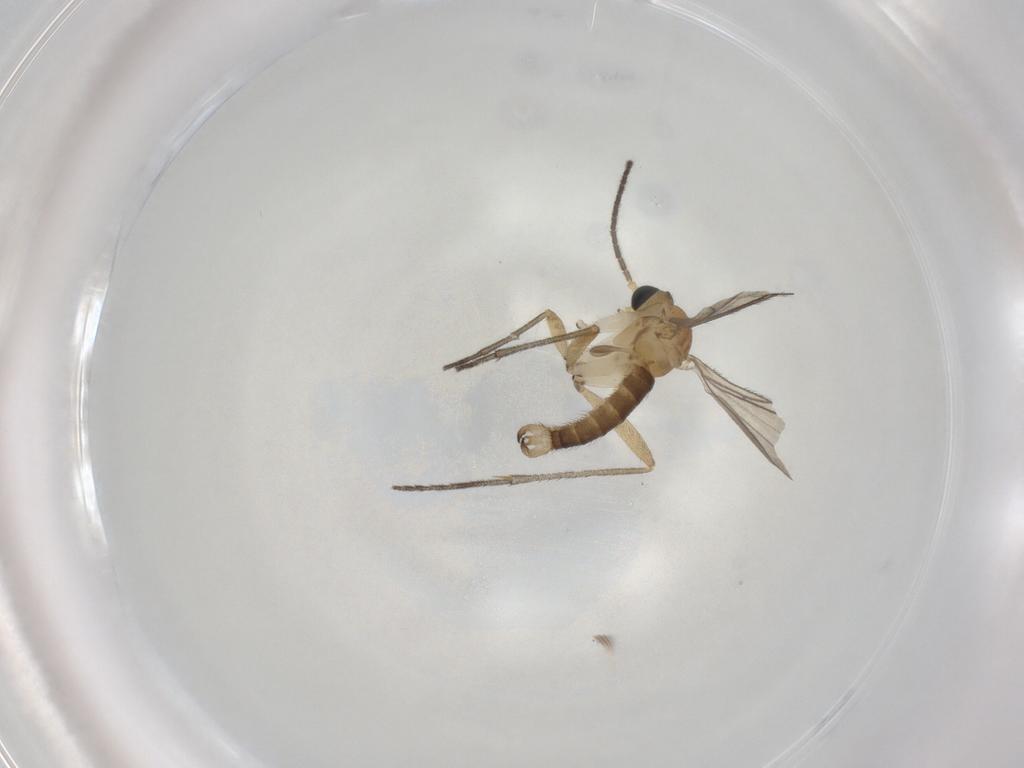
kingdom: Animalia
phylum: Arthropoda
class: Insecta
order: Diptera
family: Sciaridae
